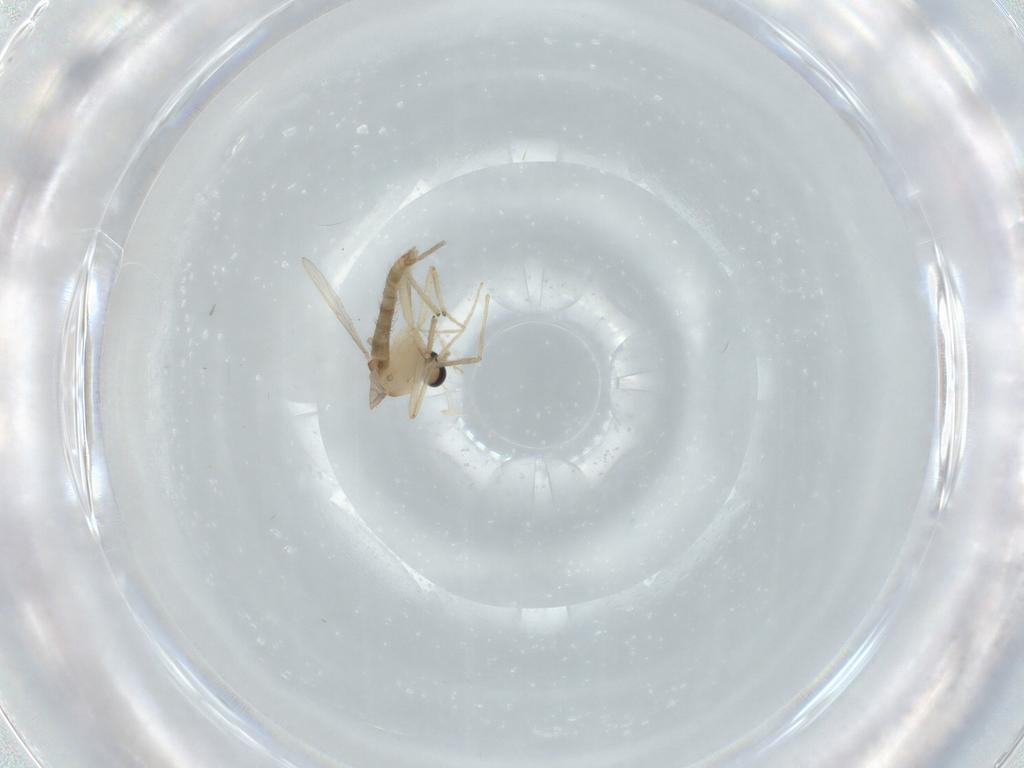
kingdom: Animalia
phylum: Arthropoda
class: Insecta
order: Diptera
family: Chironomidae
